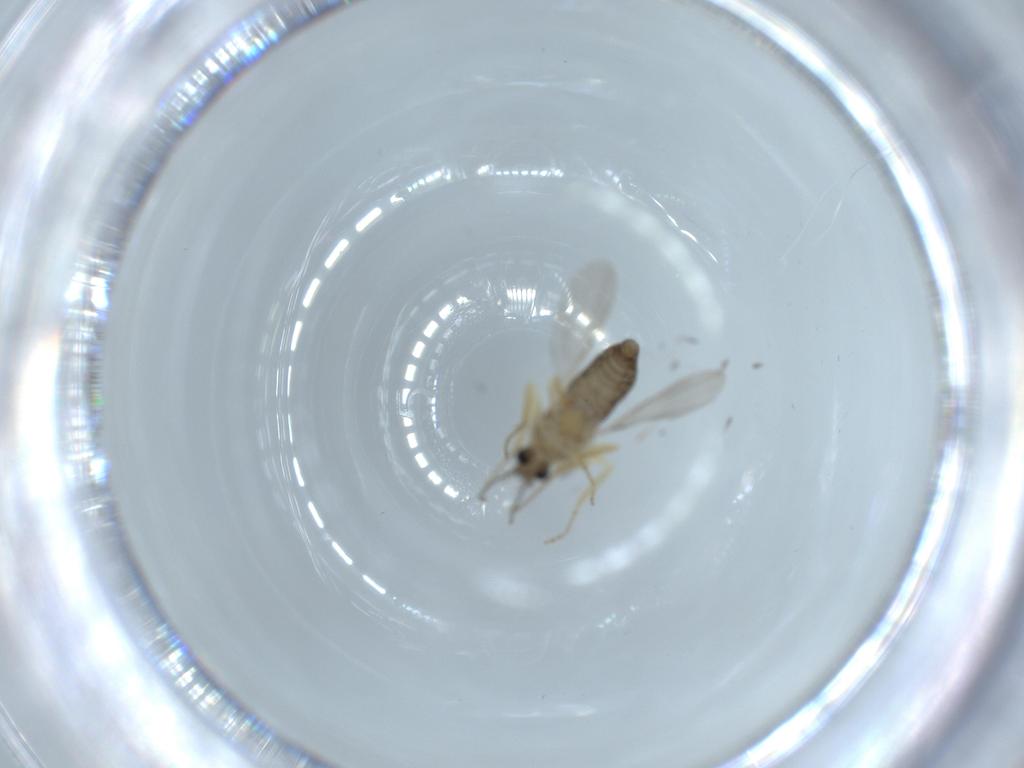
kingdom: Animalia
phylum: Arthropoda
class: Insecta
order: Diptera
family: Ceratopogonidae
